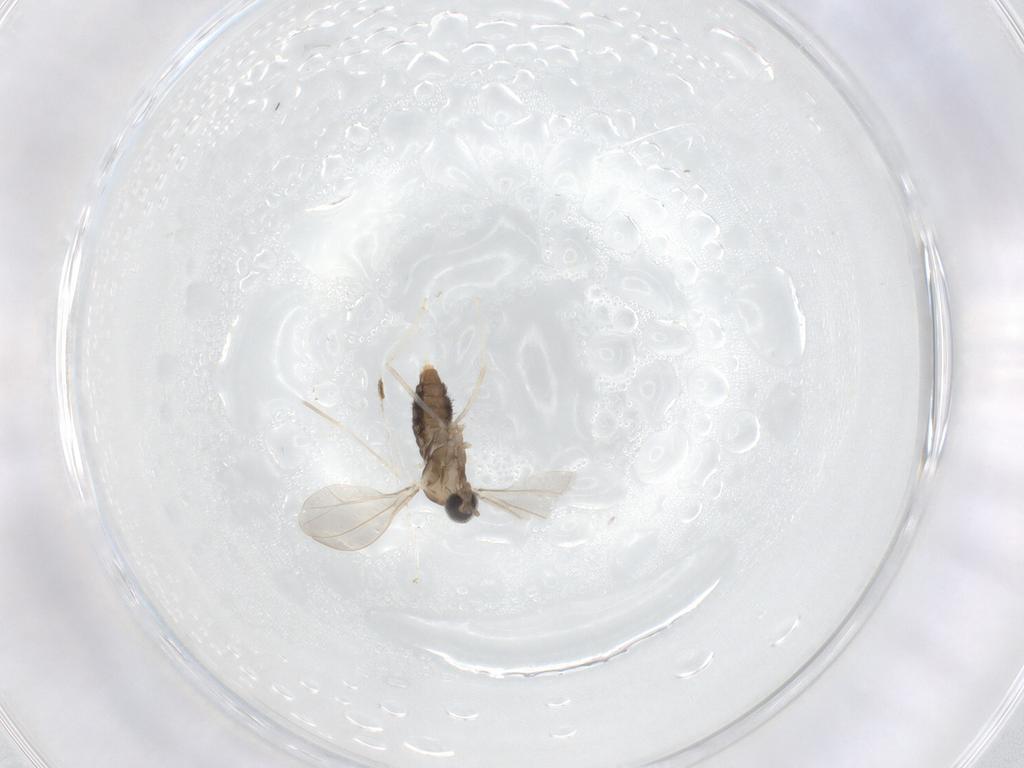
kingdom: Animalia
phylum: Arthropoda
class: Insecta
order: Diptera
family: Cecidomyiidae
